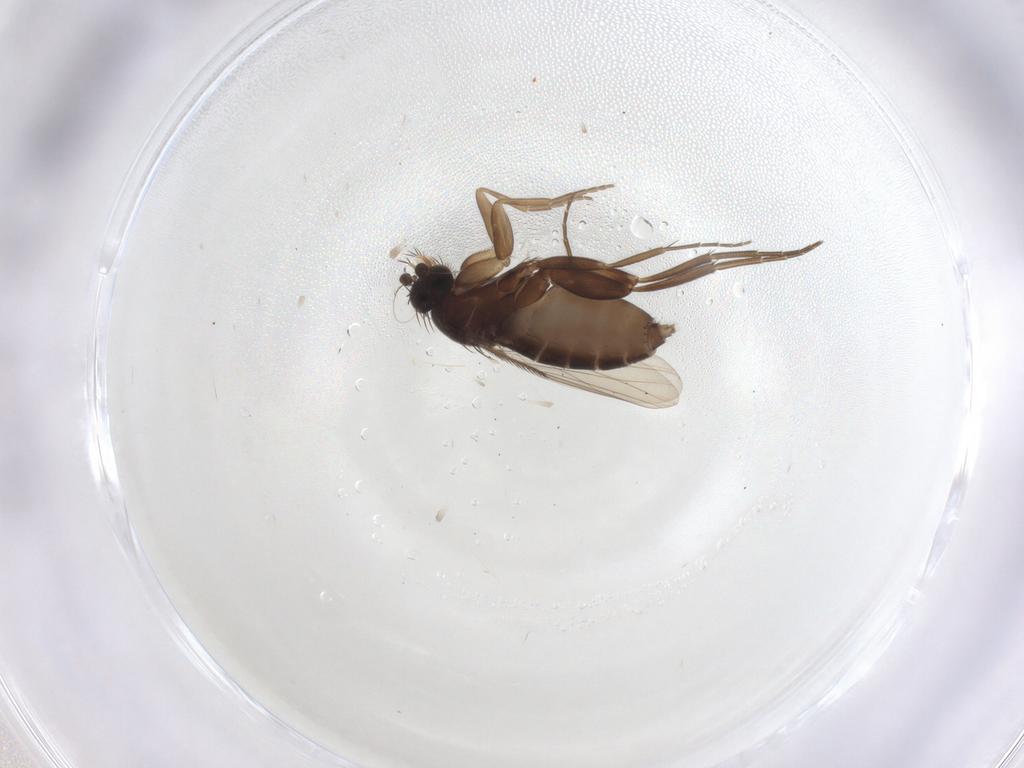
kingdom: Animalia
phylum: Arthropoda
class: Insecta
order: Diptera
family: Phoridae
